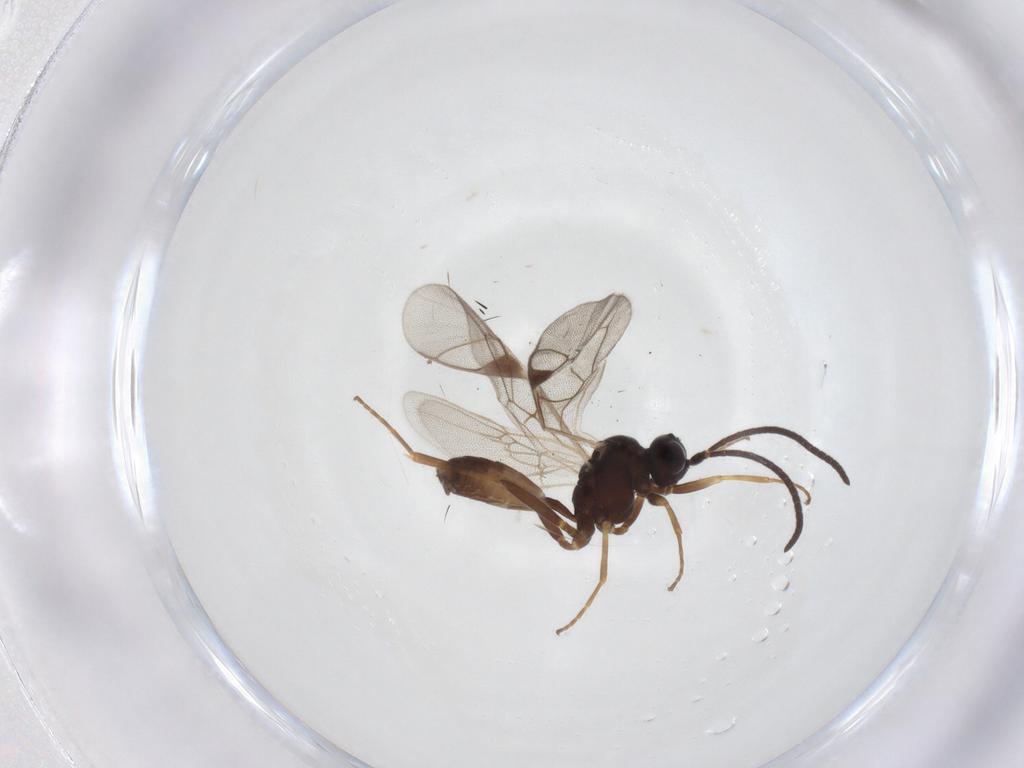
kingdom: Animalia
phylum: Arthropoda
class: Insecta
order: Hymenoptera
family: Ichneumonidae
